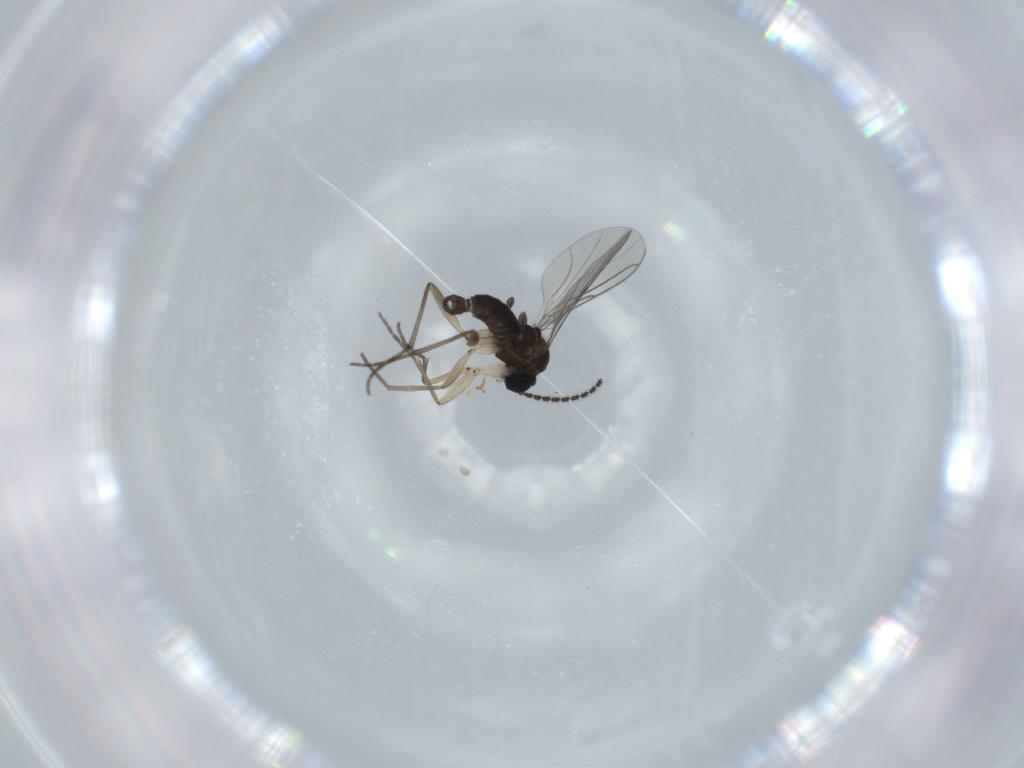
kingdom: Animalia
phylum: Arthropoda
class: Insecta
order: Diptera
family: Sciaridae
